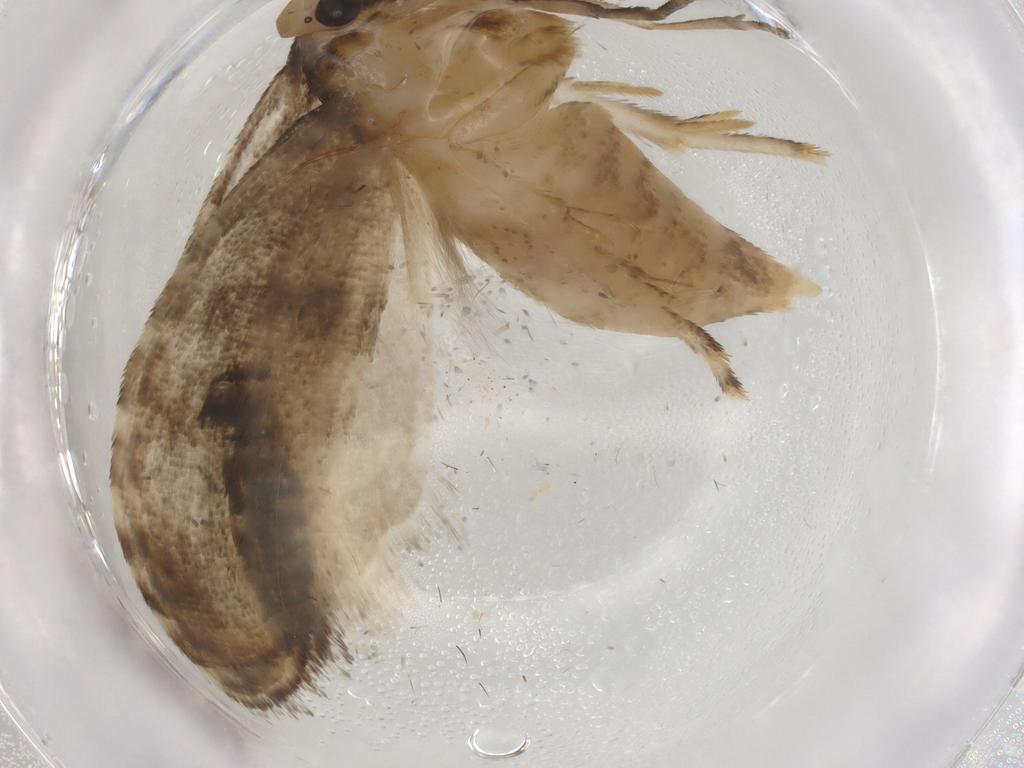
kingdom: Animalia
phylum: Arthropoda
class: Insecta
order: Lepidoptera
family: Glyphipterigidae
